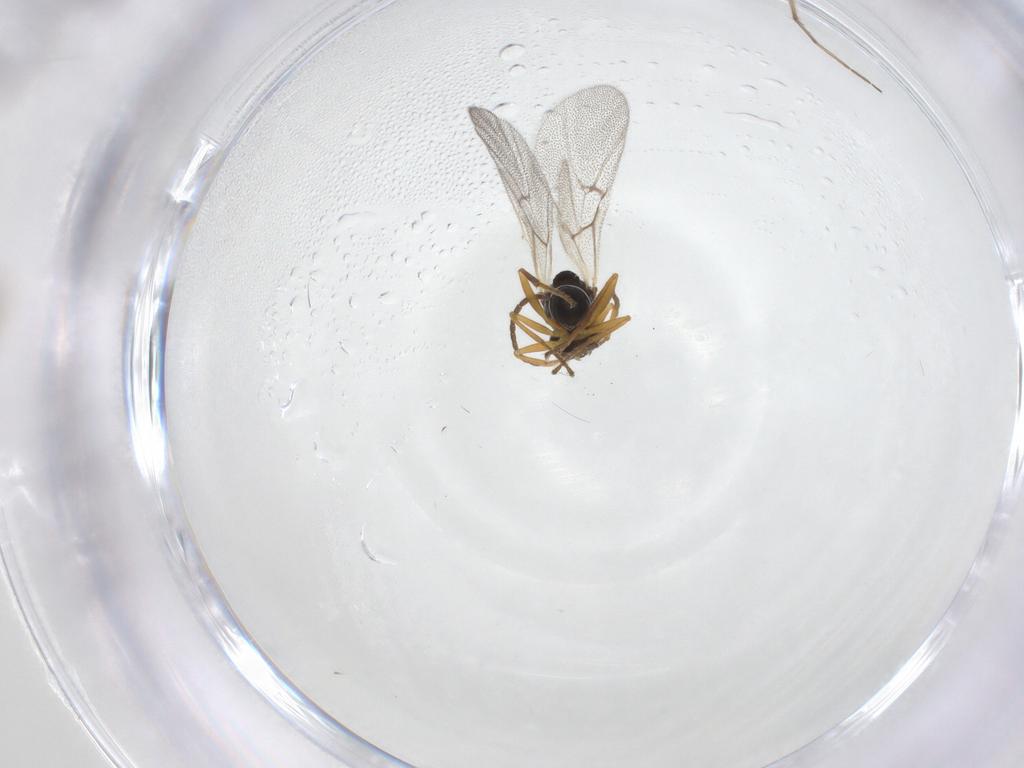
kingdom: Animalia
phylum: Arthropoda
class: Insecta
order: Hymenoptera
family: Cynipidae
